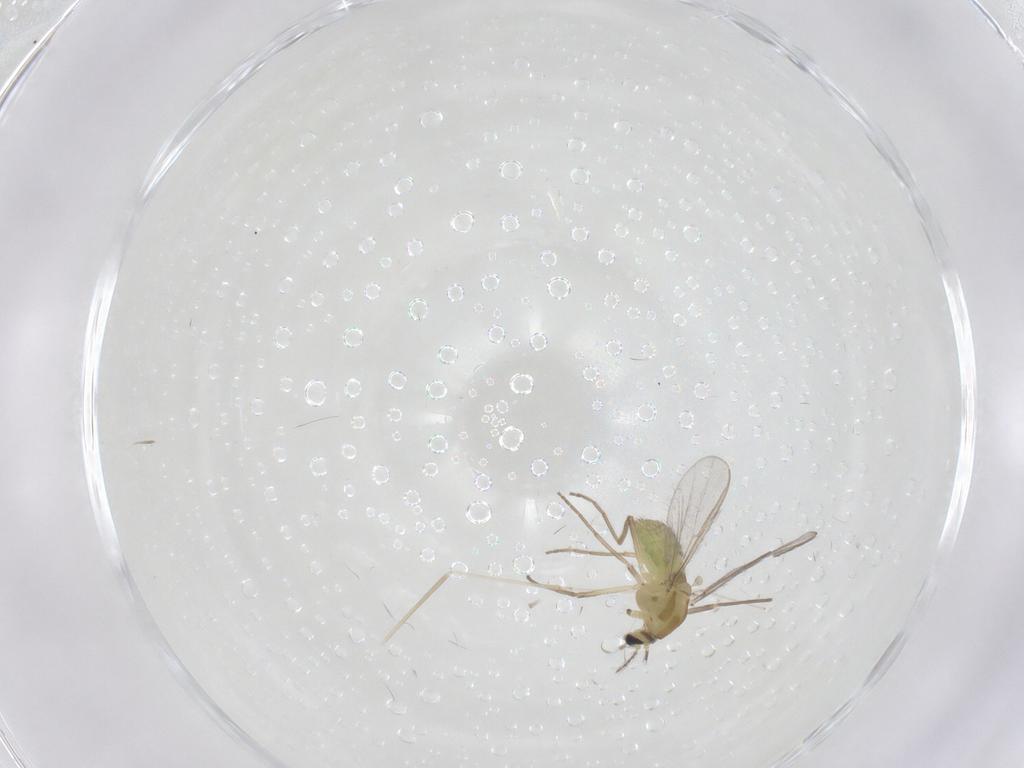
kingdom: Animalia
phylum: Arthropoda
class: Insecta
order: Diptera
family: Chironomidae
